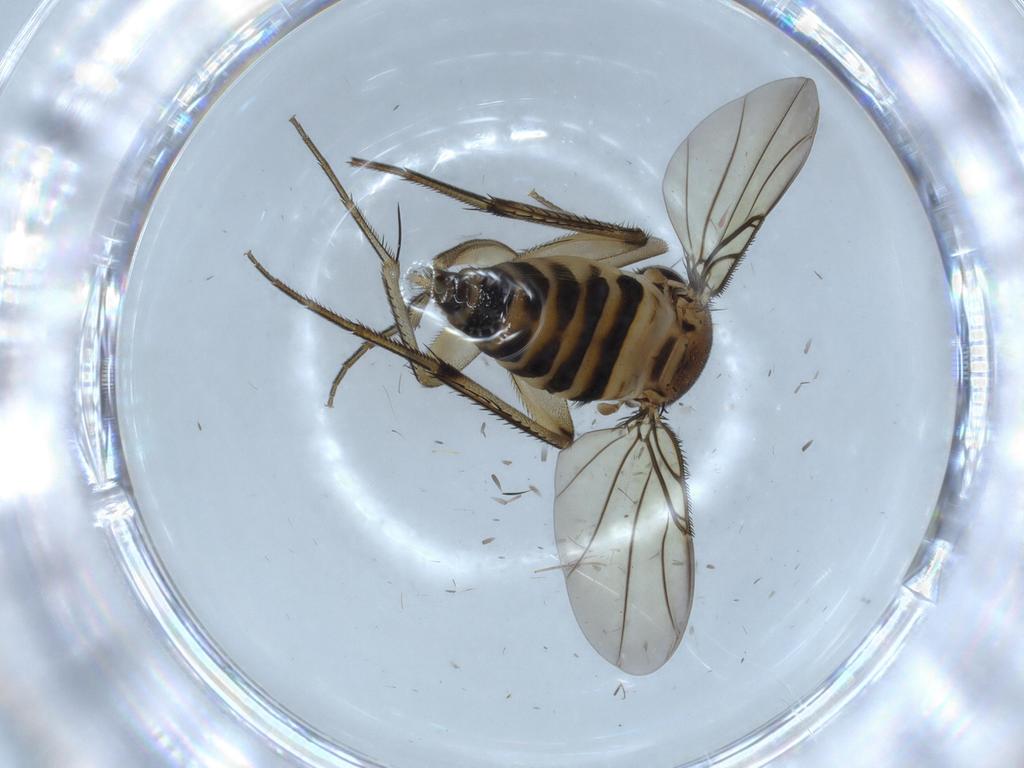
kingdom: Animalia
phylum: Arthropoda
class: Insecta
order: Diptera
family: Phoridae
